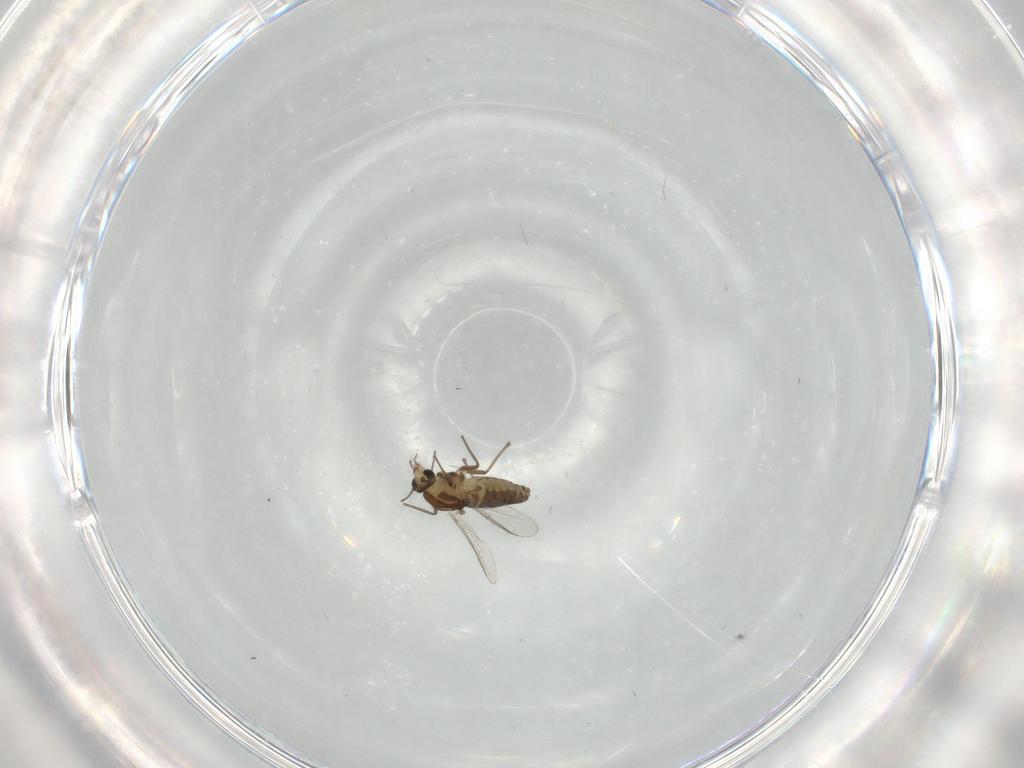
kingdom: Animalia
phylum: Arthropoda
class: Insecta
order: Diptera
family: Chironomidae
